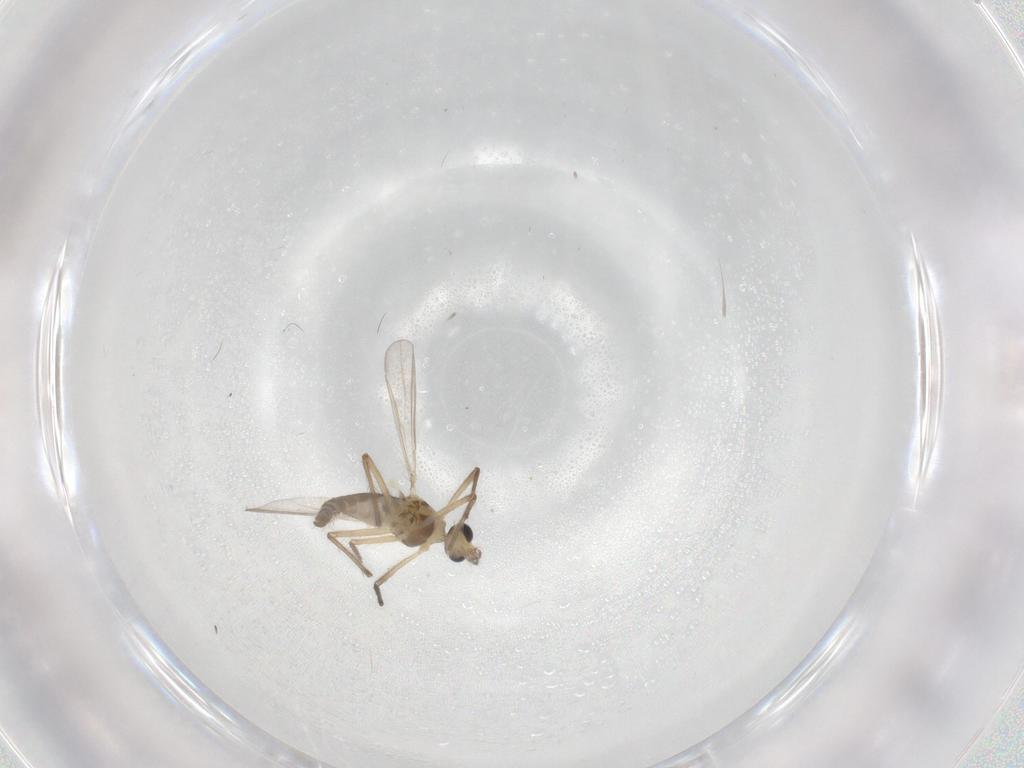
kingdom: Animalia
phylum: Arthropoda
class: Insecta
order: Diptera
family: Chironomidae
